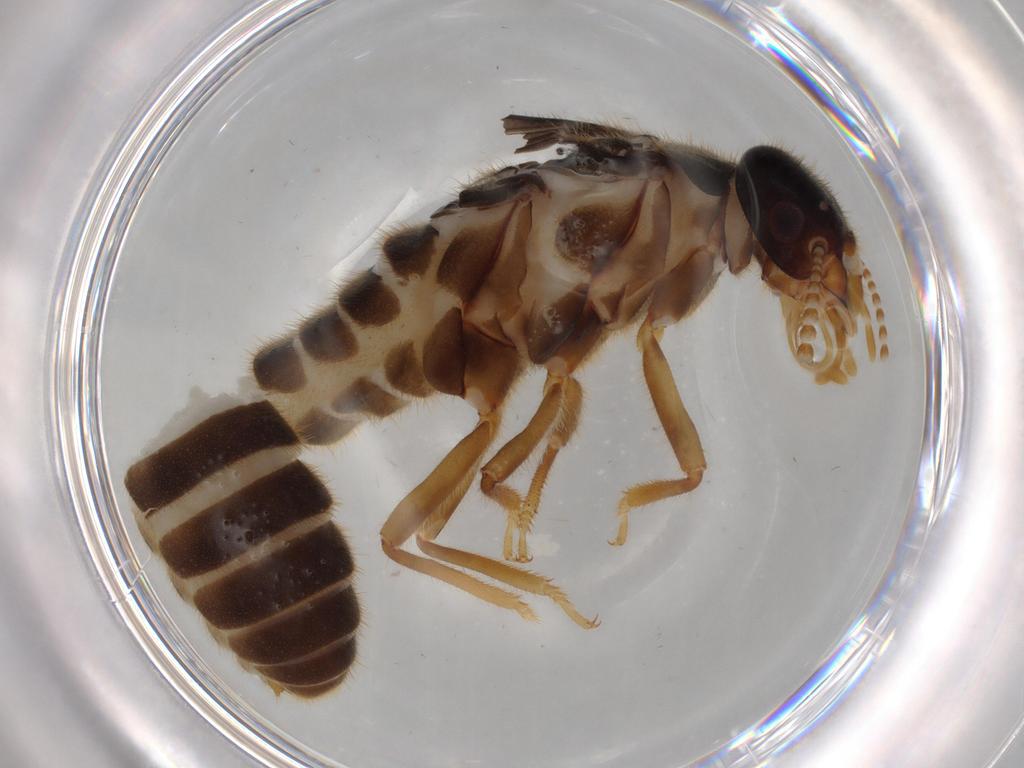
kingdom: Animalia
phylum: Arthropoda
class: Insecta
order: Blattodea
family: Termitidae
